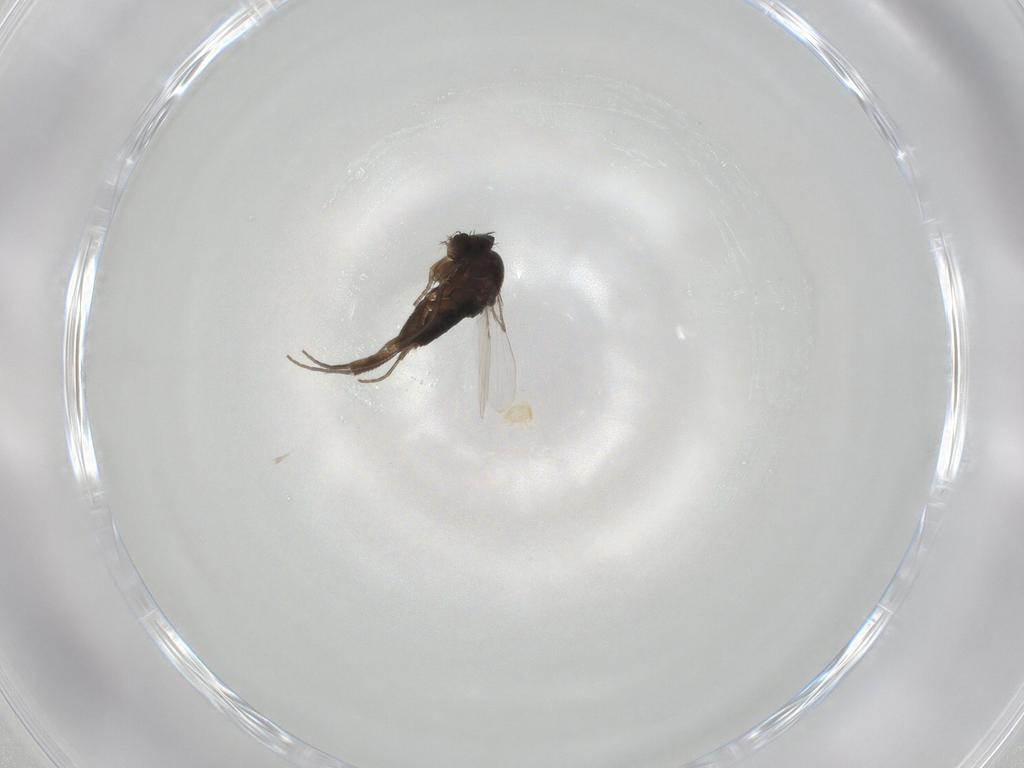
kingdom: Animalia
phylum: Arthropoda
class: Insecta
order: Diptera
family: Phoridae
